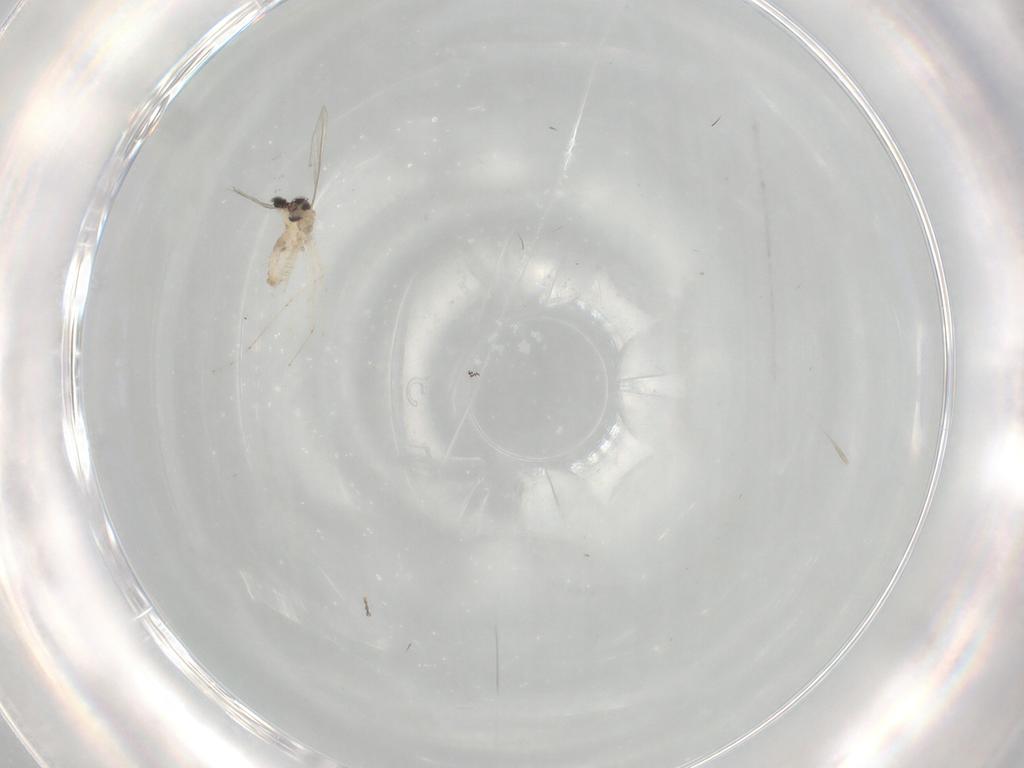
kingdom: Animalia
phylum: Arthropoda
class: Insecta
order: Diptera
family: Cecidomyiidae
